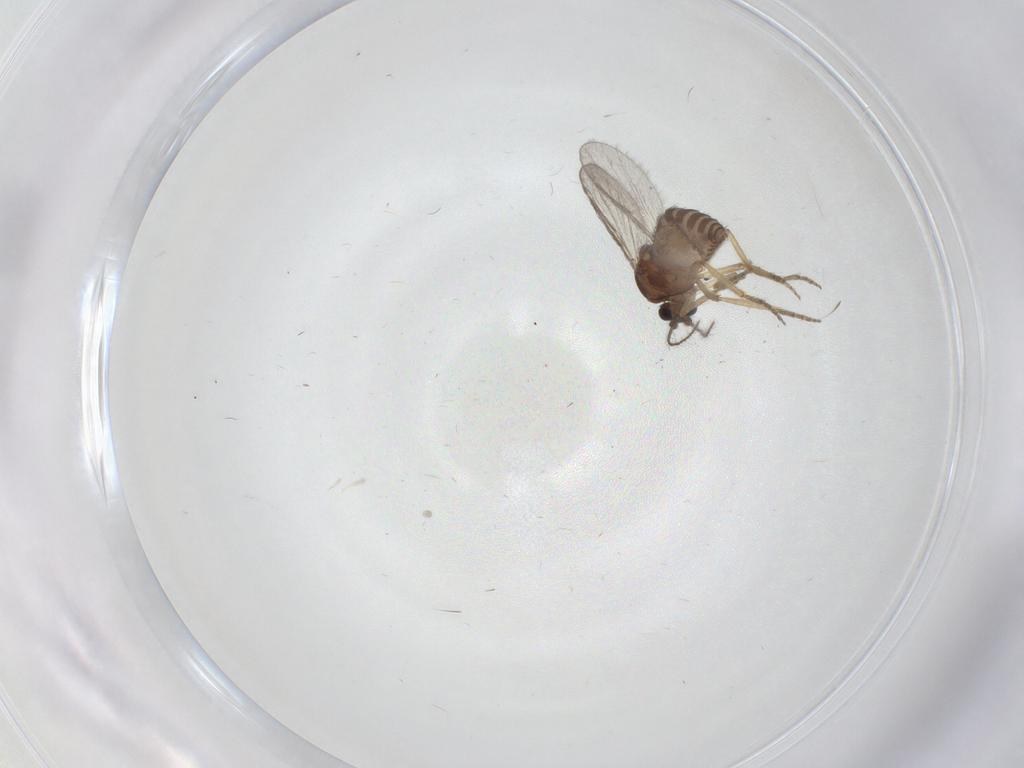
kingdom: Animalia
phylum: Arthropoda
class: Insecta
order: Diptera
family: Ceratopogonidae
